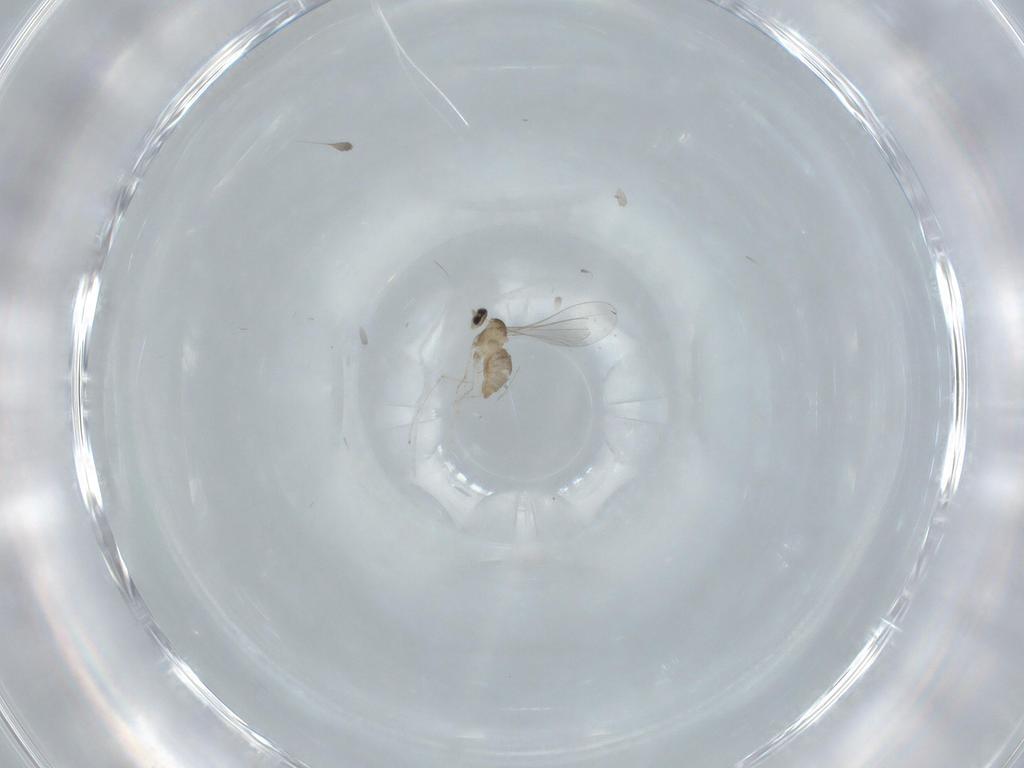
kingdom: Animalia
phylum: Arthropoda
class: Insecta
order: Diptera
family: Cecidomyiidae
